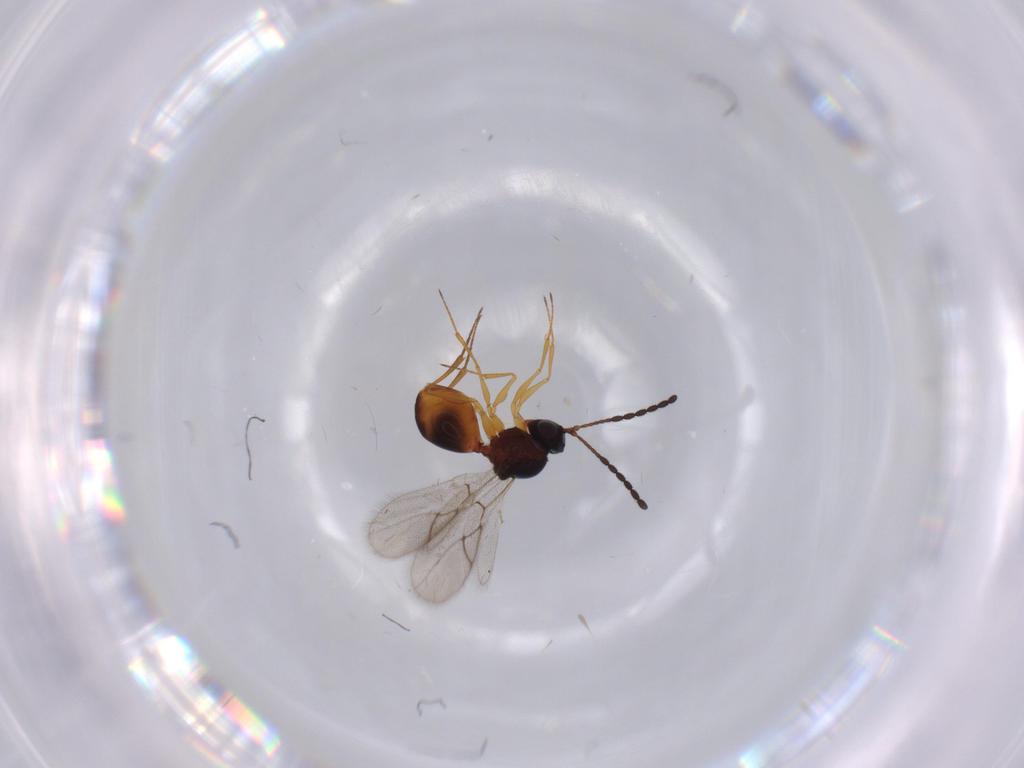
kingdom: Animalia
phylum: Arthropoda
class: Insecta
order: Hymenoptera
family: Figitidae
